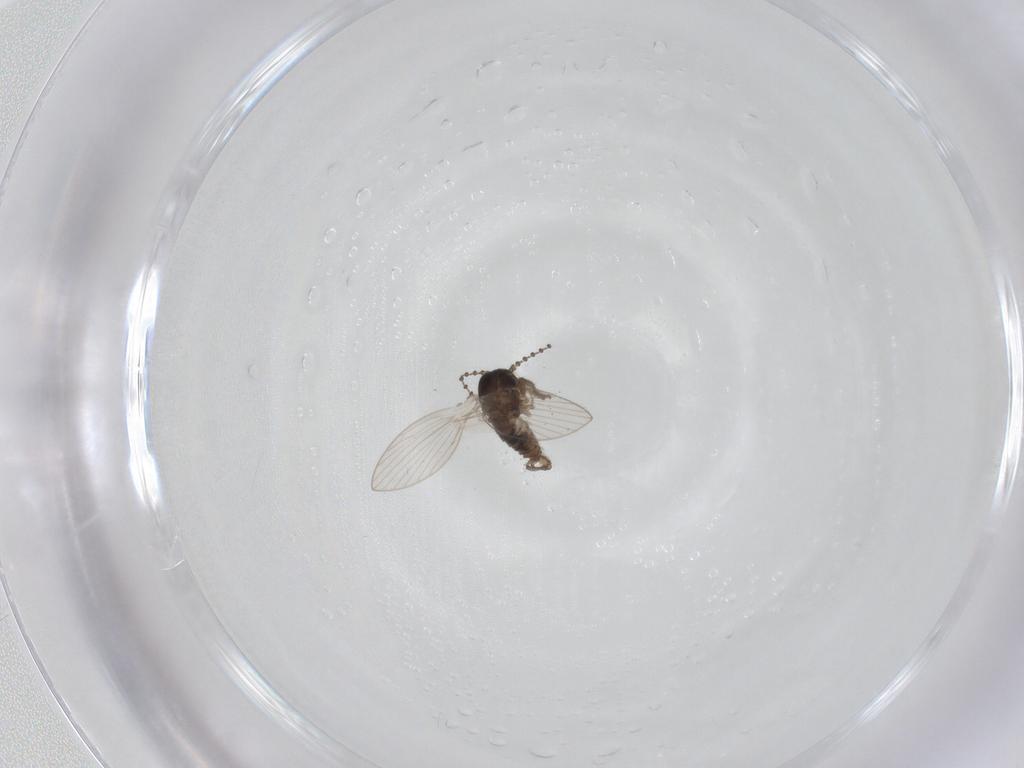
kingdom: Animalia
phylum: Arthropoda
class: Insecta
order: Diptera
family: Psychodidae
